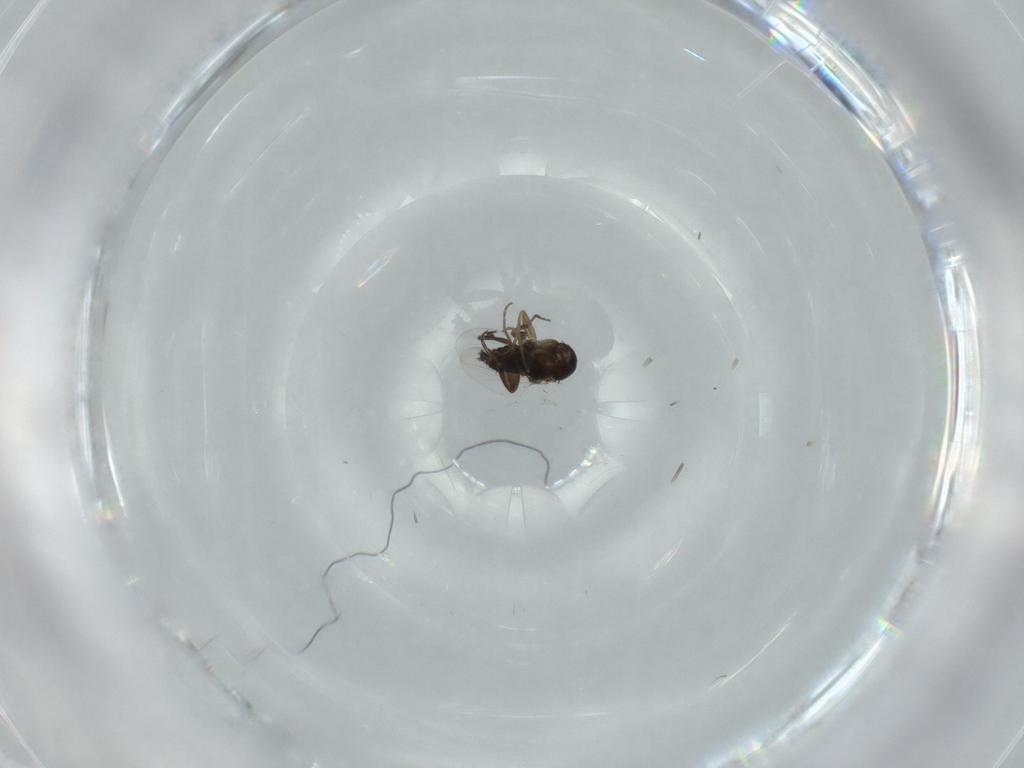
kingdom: Animalia
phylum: Arthropoda
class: Insecta
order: Diptera
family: Phoridae
